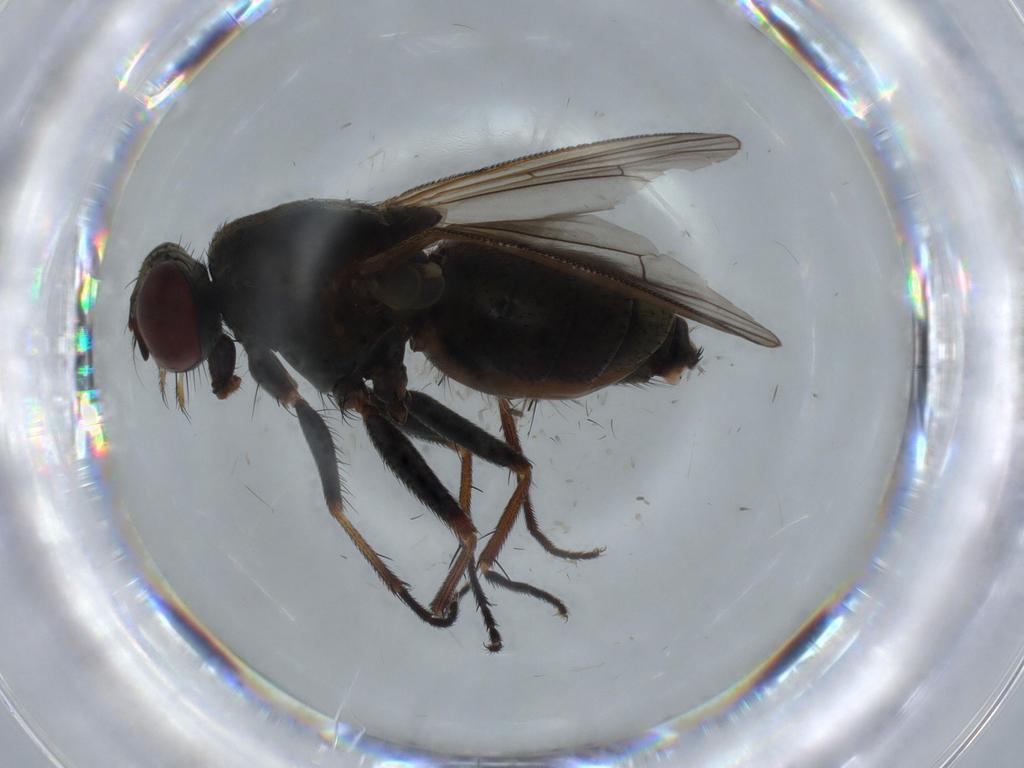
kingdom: Animalia
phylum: Arthropoda
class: Insecta
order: Diptera
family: Muscidae
